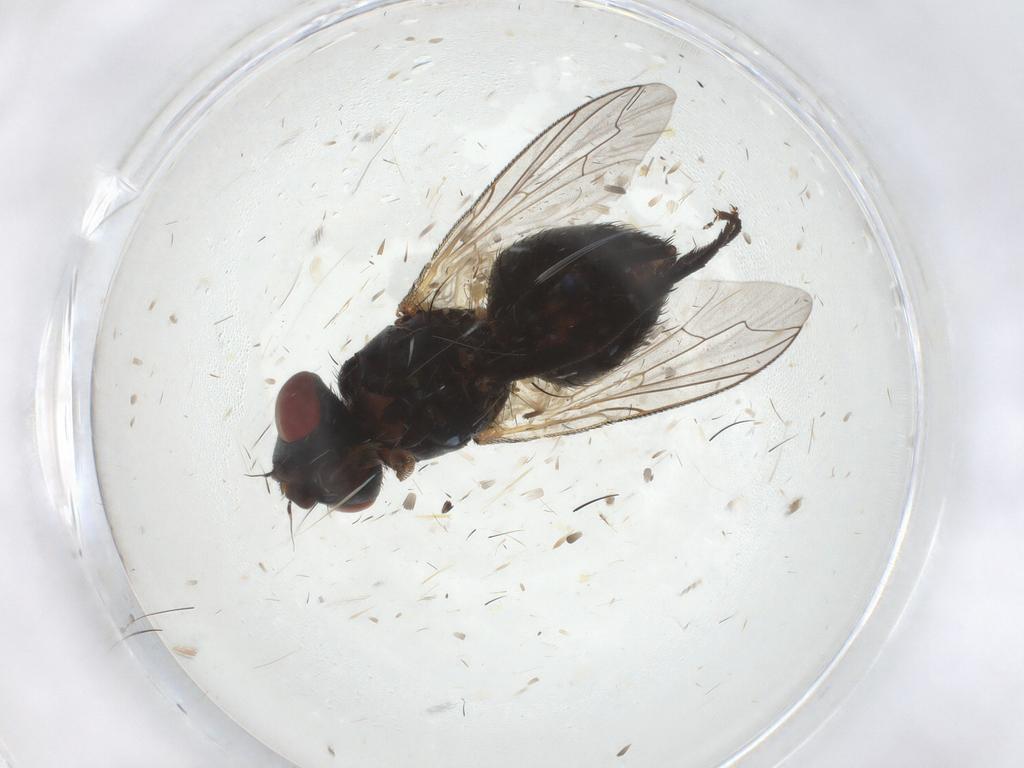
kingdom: Animalia
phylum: Arthropoda
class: Insecta
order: Diptera
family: Sarcophagidae
